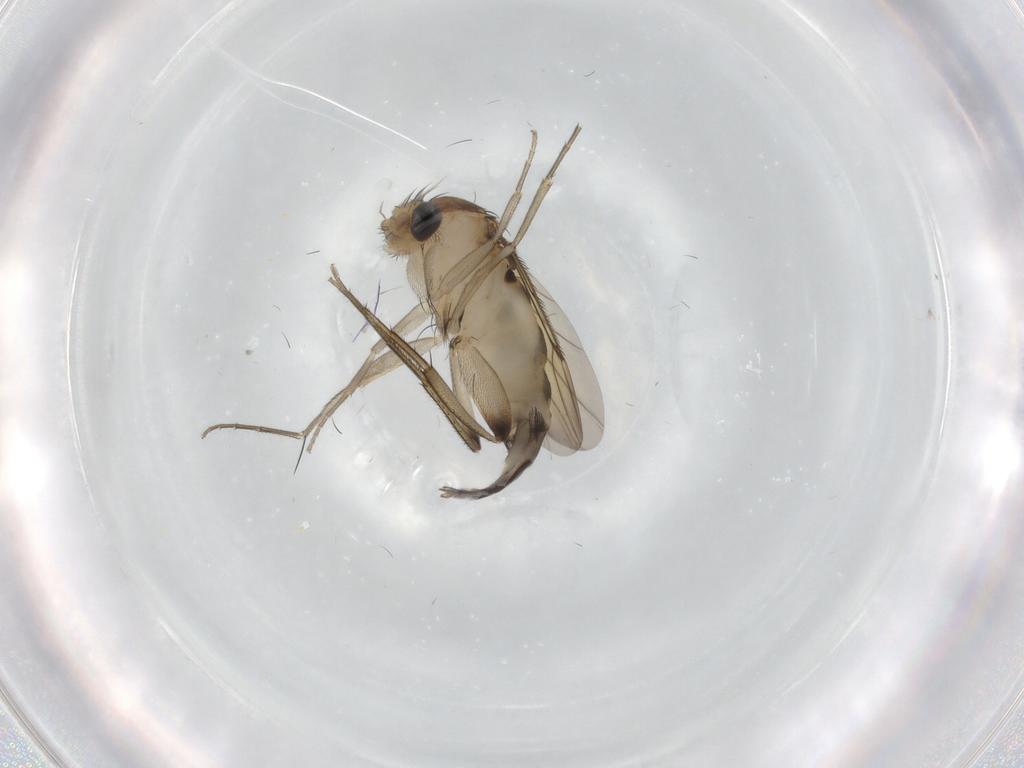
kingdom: Animalia
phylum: Arthropoda
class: Insecta
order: Diptera
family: Phoridae
